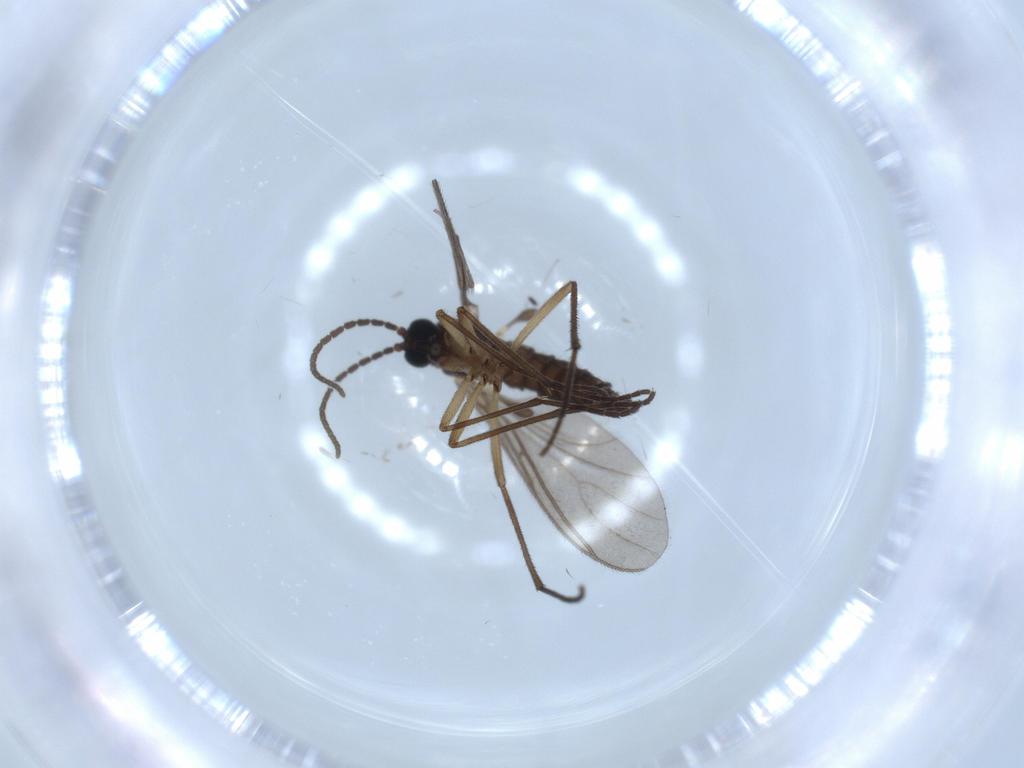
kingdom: Animalia
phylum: Arthropoda
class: Insecta
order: Diptera
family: Sciaridae
